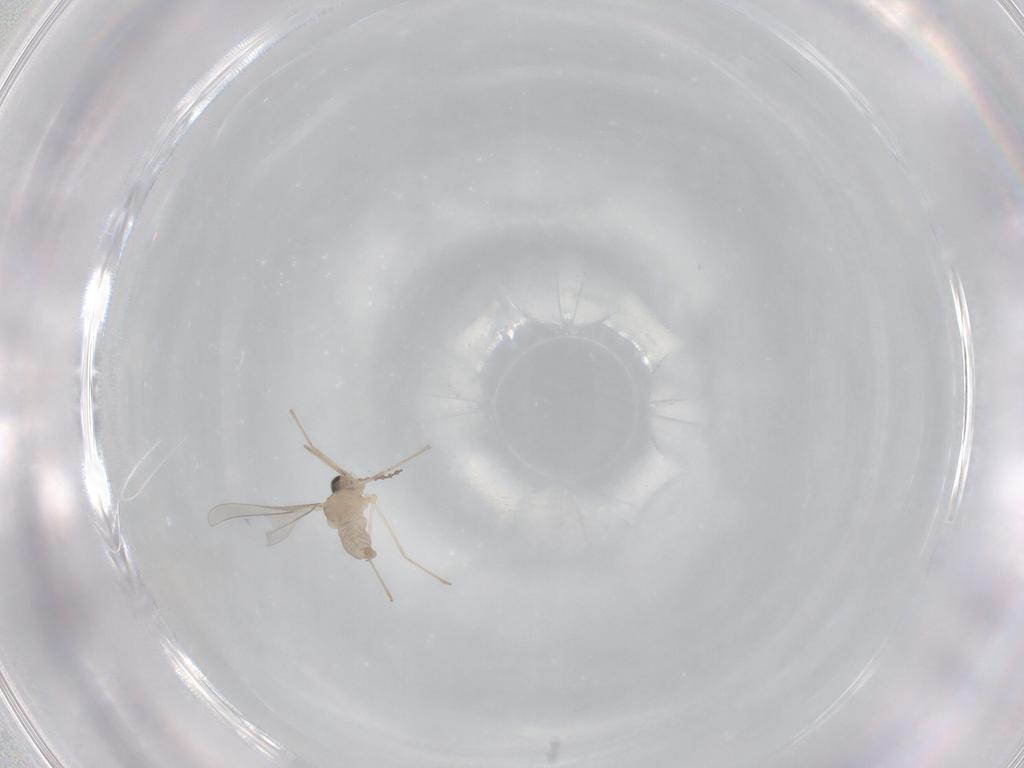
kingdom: Animalia
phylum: Arthropoda
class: Insecta
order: Diptera
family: Cecidomyiidae
